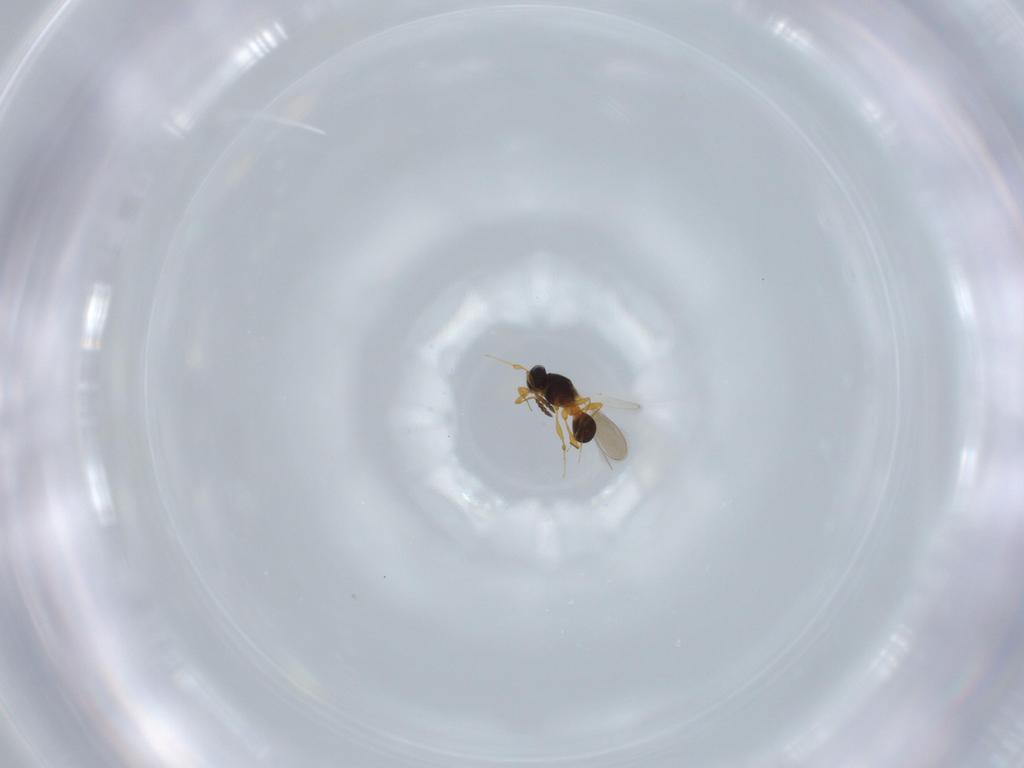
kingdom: Animalia
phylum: Arthropoda
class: Insecta
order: Hymenoptera
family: Platygastridae
